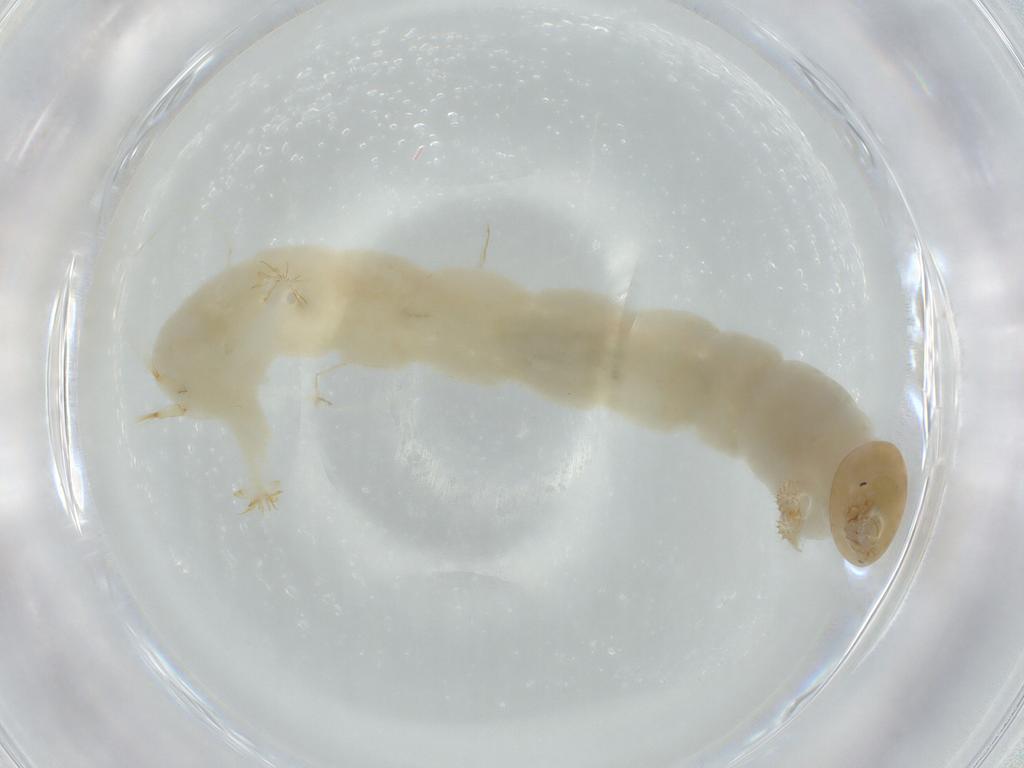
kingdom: Animalia
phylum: Arthropoda
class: Insecta
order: Diptera
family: Chironomidae
